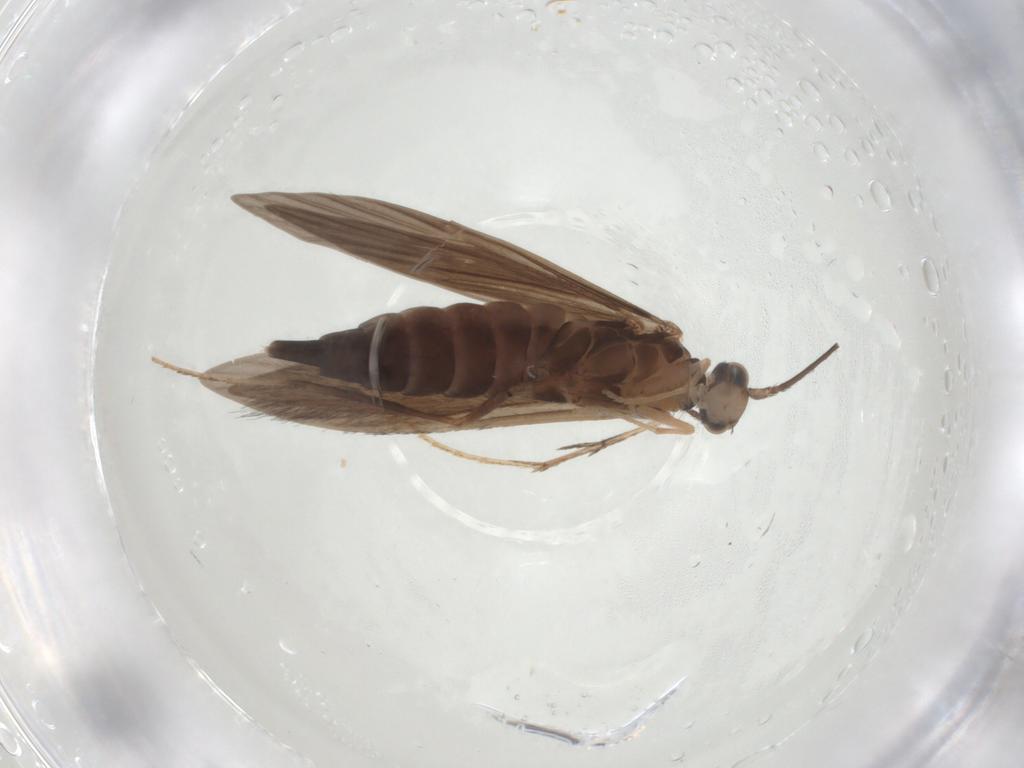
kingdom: Animalia
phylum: Arthropoda
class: Insecta
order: Trichoptera
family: Xiphocentronidae
